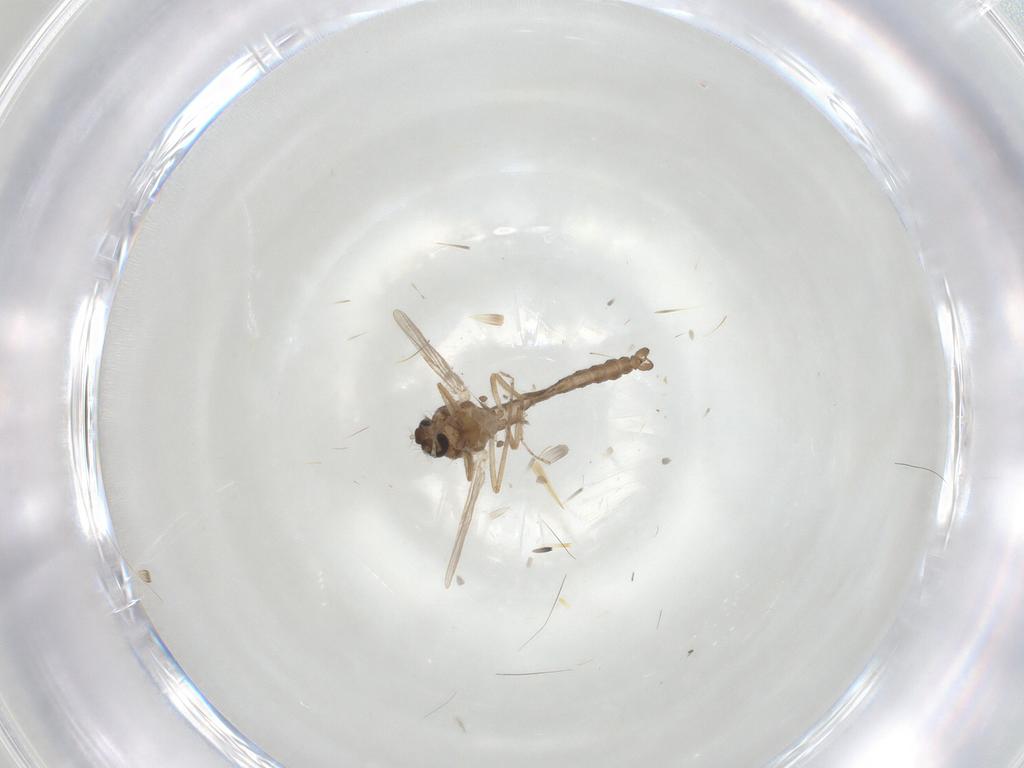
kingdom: Animalia
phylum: Arthropoda
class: Insecta
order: Diptera
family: Ceratopogonidae
